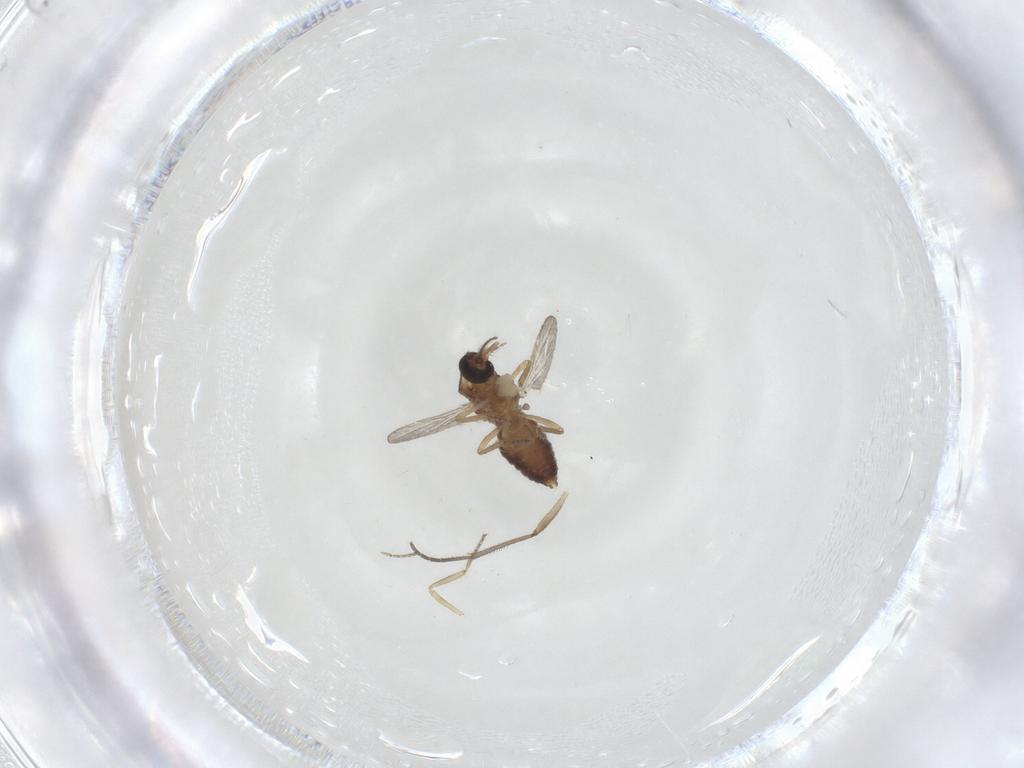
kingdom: Animalia
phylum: Arthropoda
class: Insecta
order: Diptera
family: Ceratopogonidae
